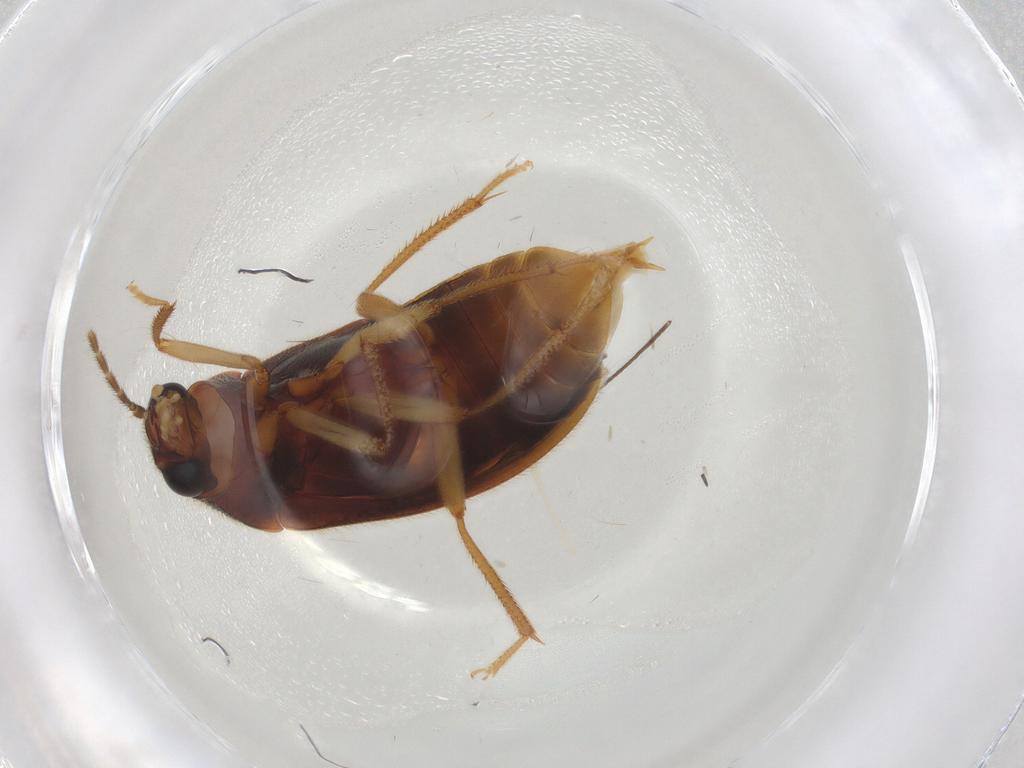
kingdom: Animalia
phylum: Arthropoda
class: Insecta
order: Coleoptera
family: Ptilodactylidae
